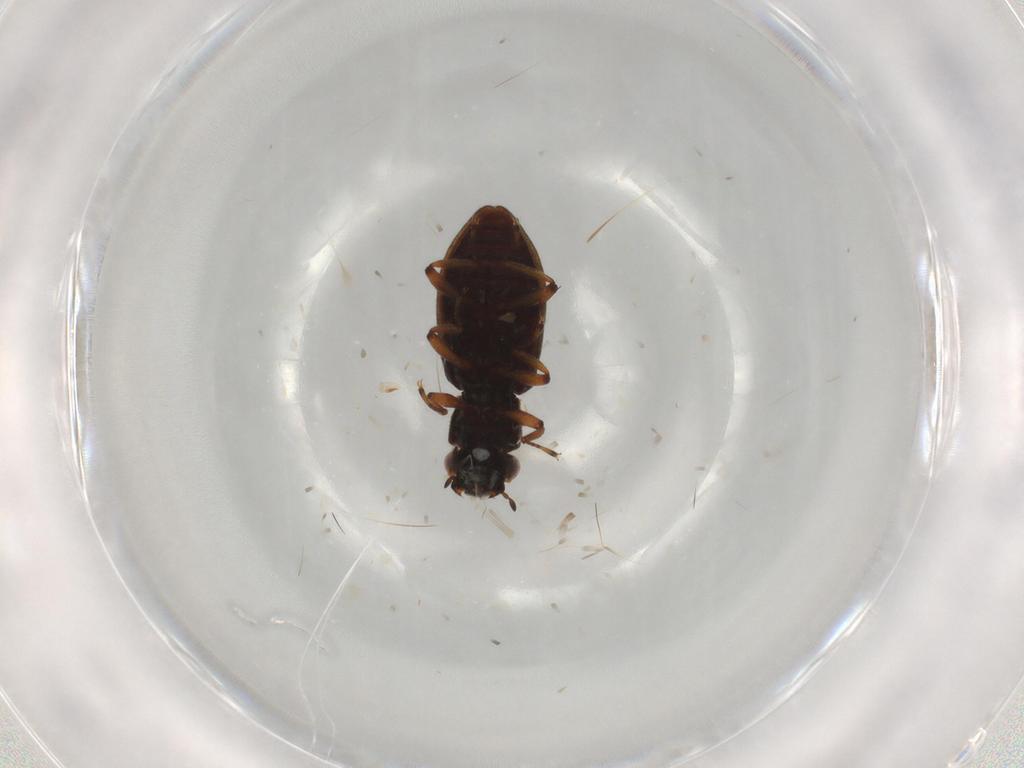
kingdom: Animalia
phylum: Arthropoda
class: Insecta
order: Coleoptera
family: Hydrophilidae
